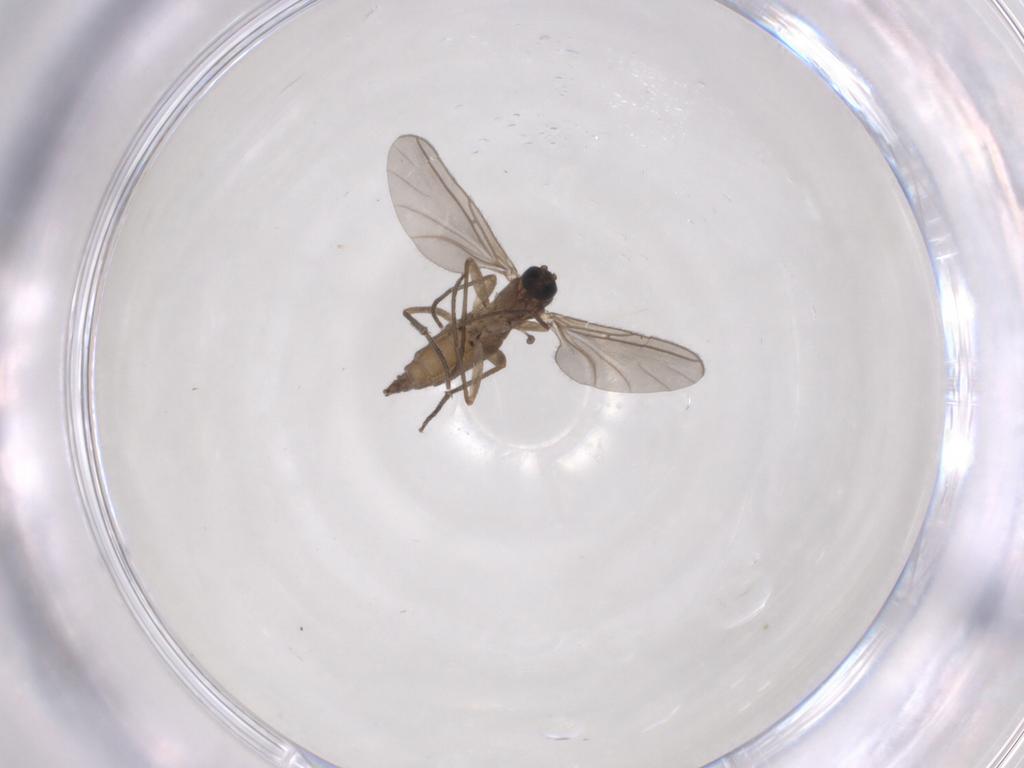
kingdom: Animalia
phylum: Arthropoda
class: Insecta
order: Diptera
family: Sciaridae
